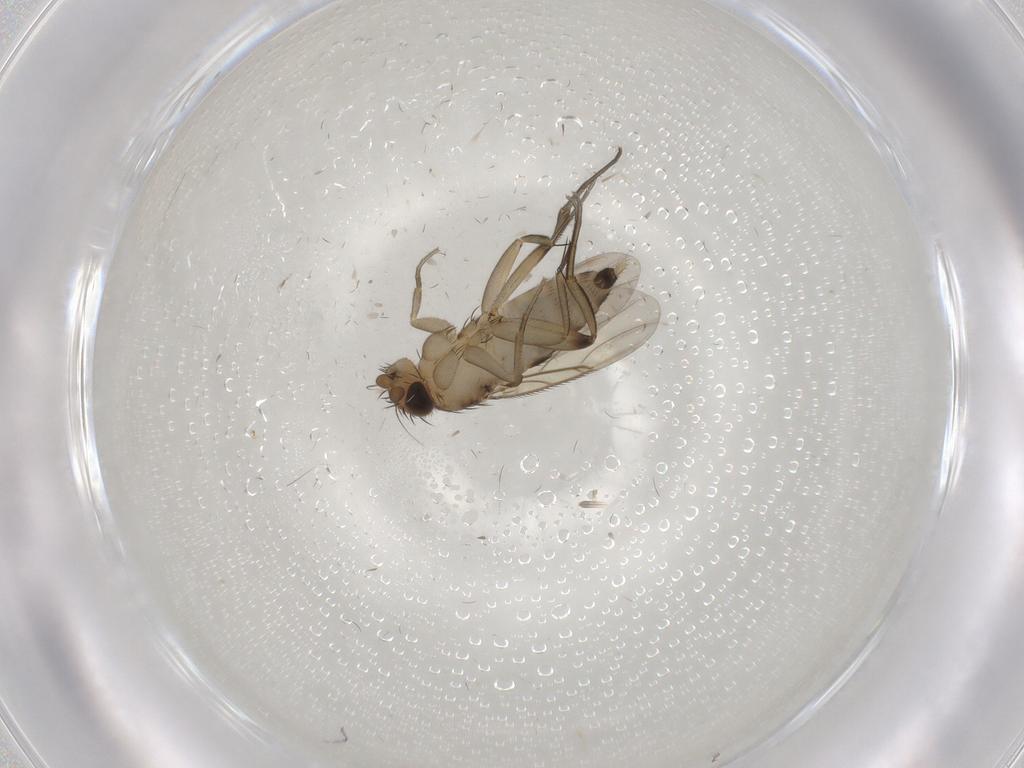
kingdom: Animalia
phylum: Arthropoda
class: Insecta
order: Diptera
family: Cecidomyiidae
